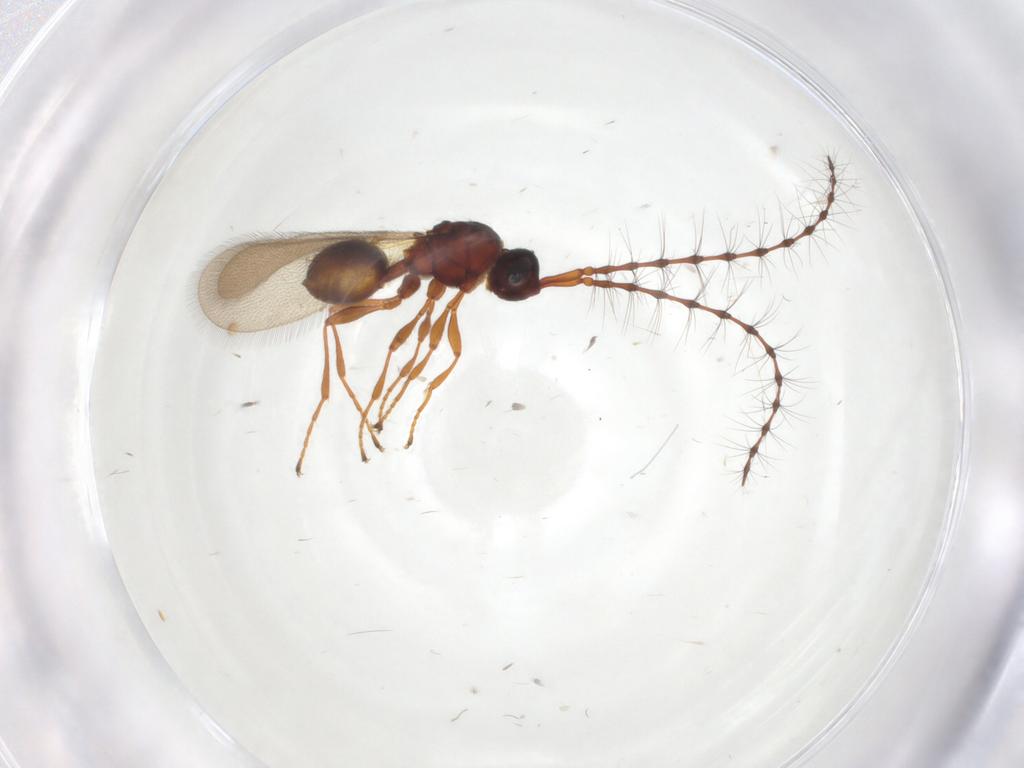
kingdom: Animalia
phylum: Arthropoda
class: Insecta
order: Hymenoptera
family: Diapriidae
